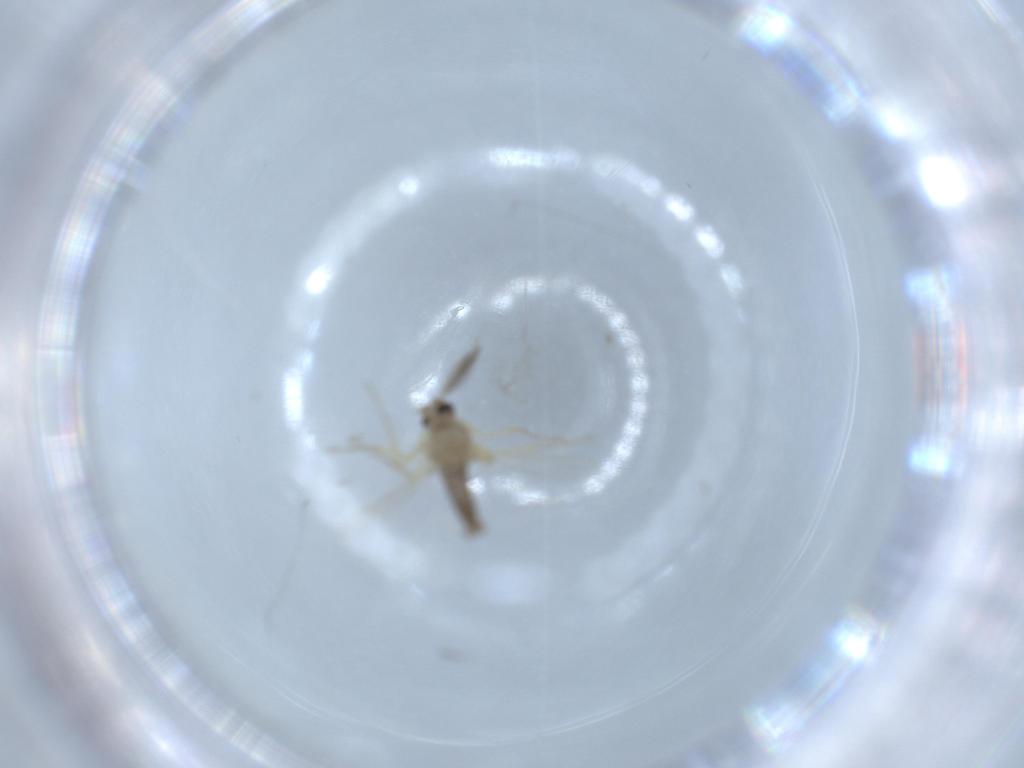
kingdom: Animalia
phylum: Arthropoda
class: Insecta
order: Diptera
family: Ceratopogonidae
